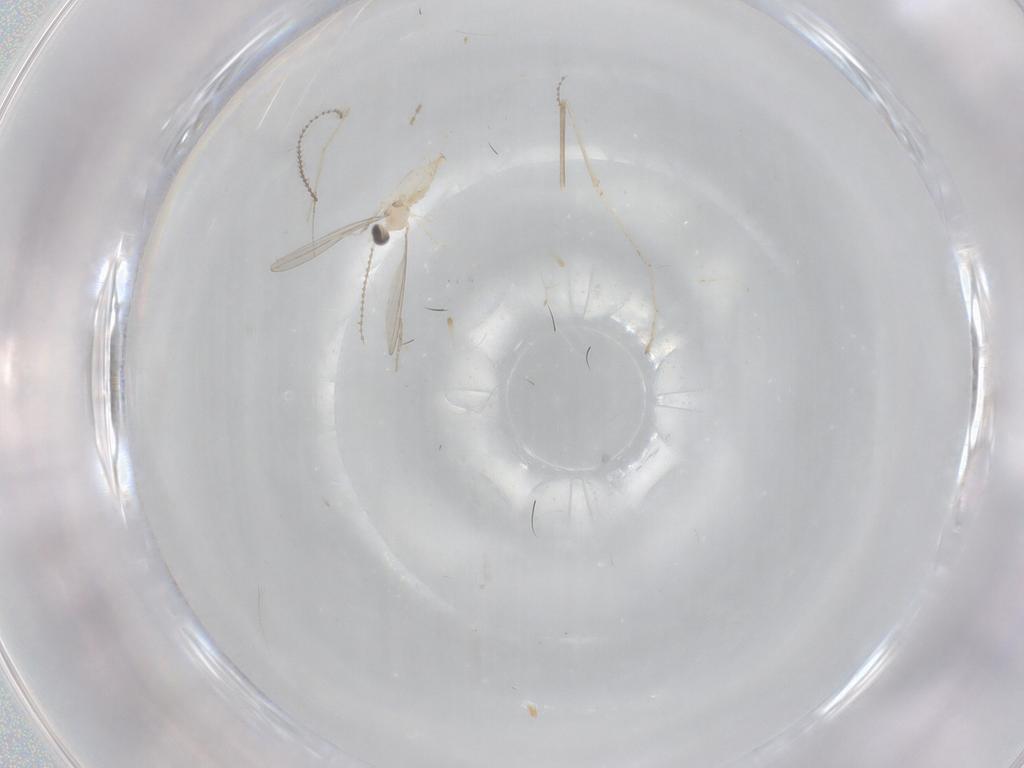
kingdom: Animalia
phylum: Arthropoda
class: Insecta
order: Diptera
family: Cecidomyiidae
